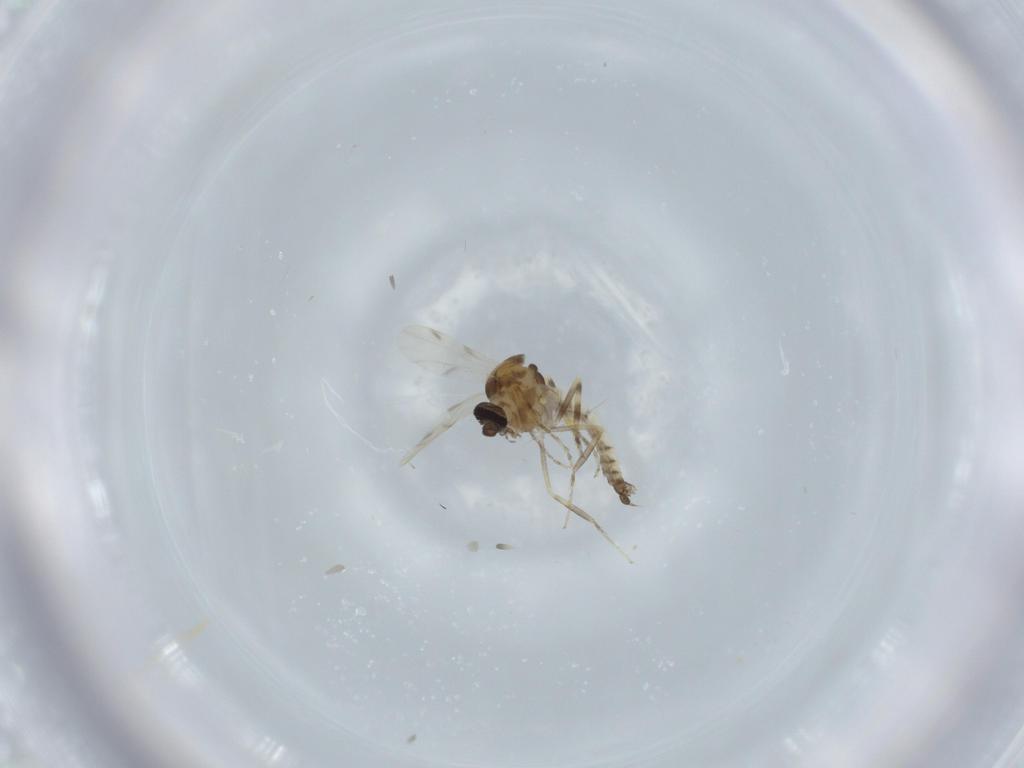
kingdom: Animalia
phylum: Arthropoda
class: Insecta
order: Diptera
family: Ceratopogonidae
